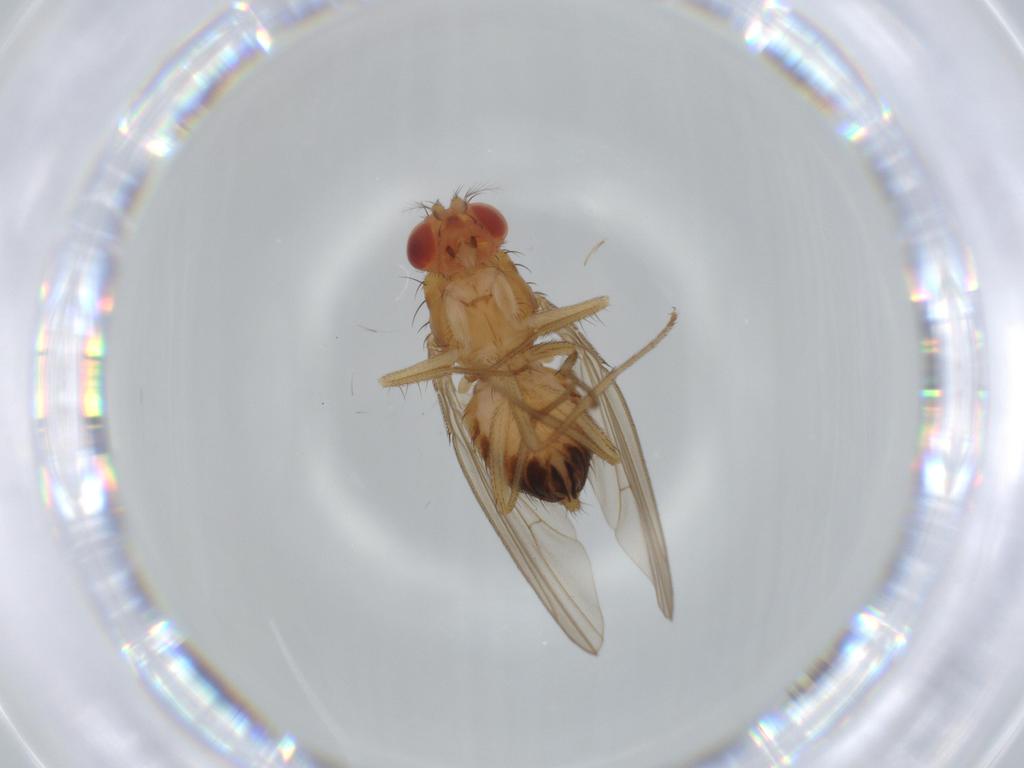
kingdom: Animalia
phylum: Arthropoda
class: Insecta
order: Diptera
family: Drosophilidae
